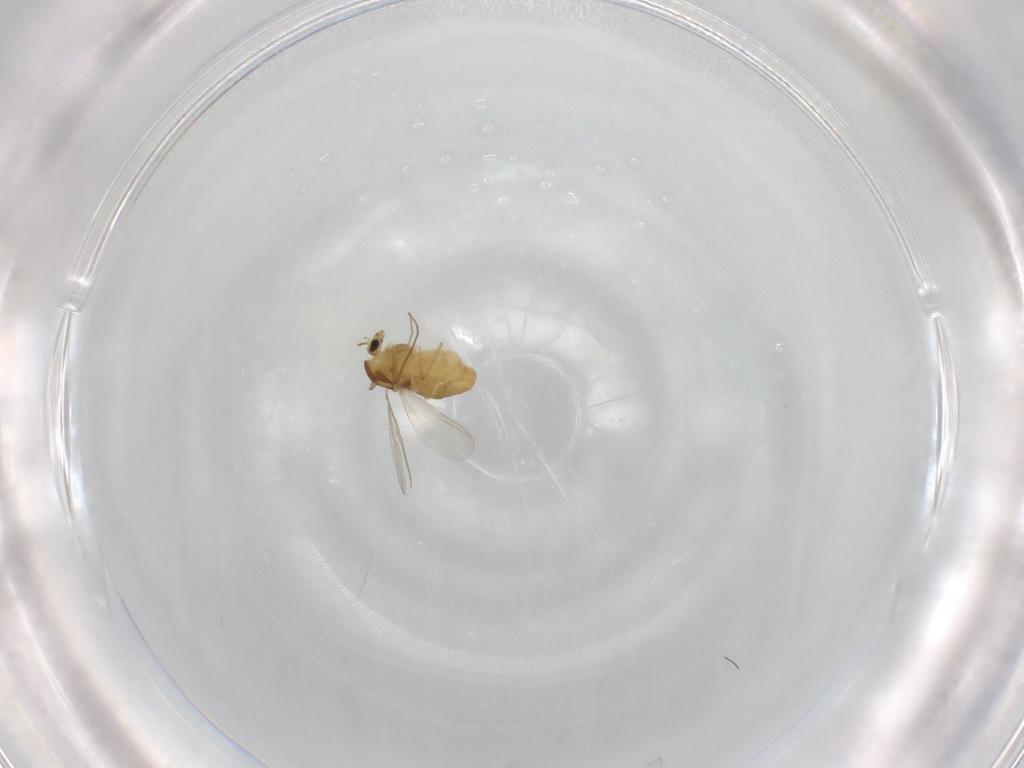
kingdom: Animalia
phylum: Arthropoda
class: Insecta
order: Diptera
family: Chironomidae
